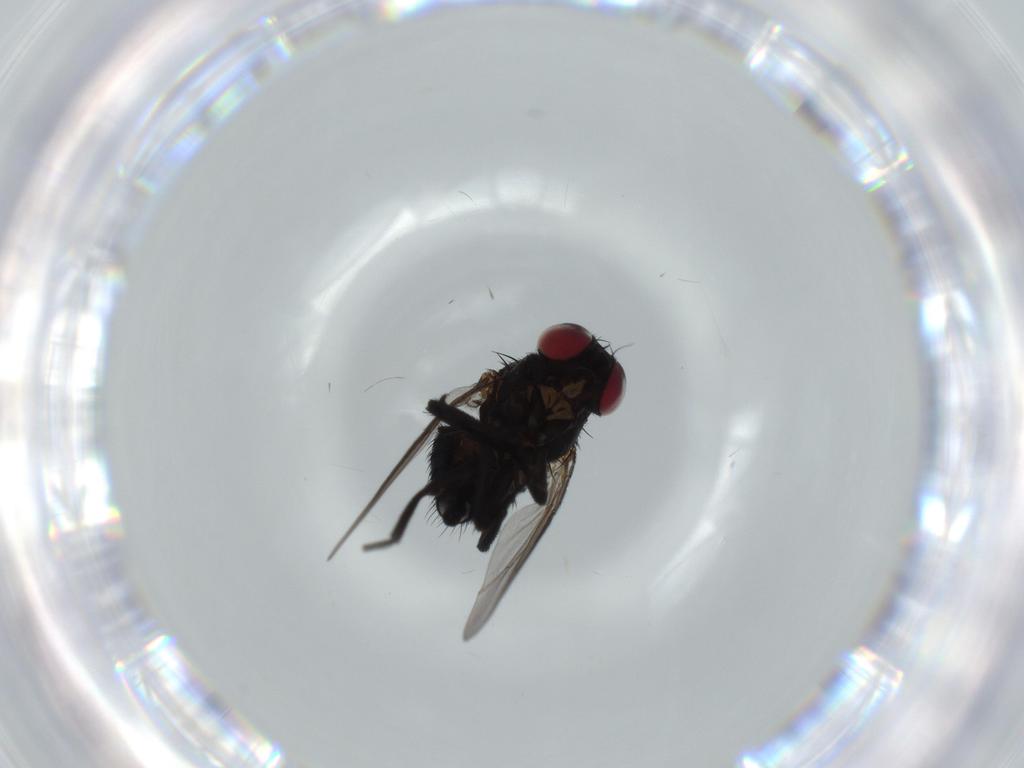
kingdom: Animalia
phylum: Arthropoda
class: Insecta
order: Diptera
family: Agromyzidae
